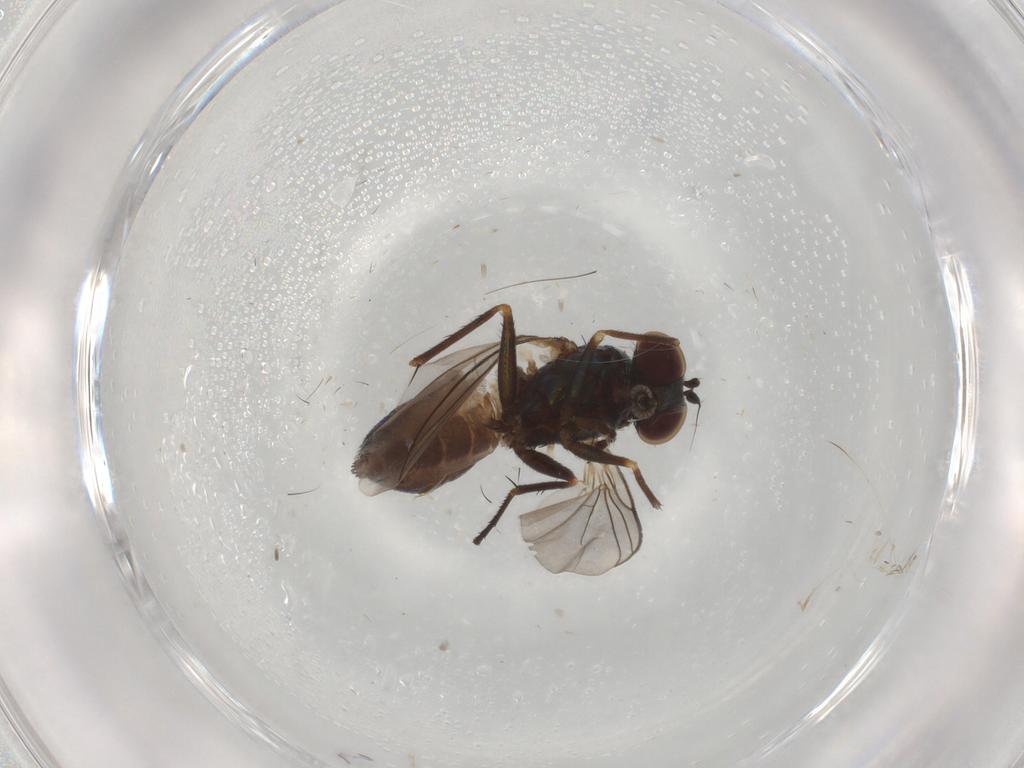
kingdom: Animalia
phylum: Arthropoda
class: Insecta
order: Diptera
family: Dolichopodidae
